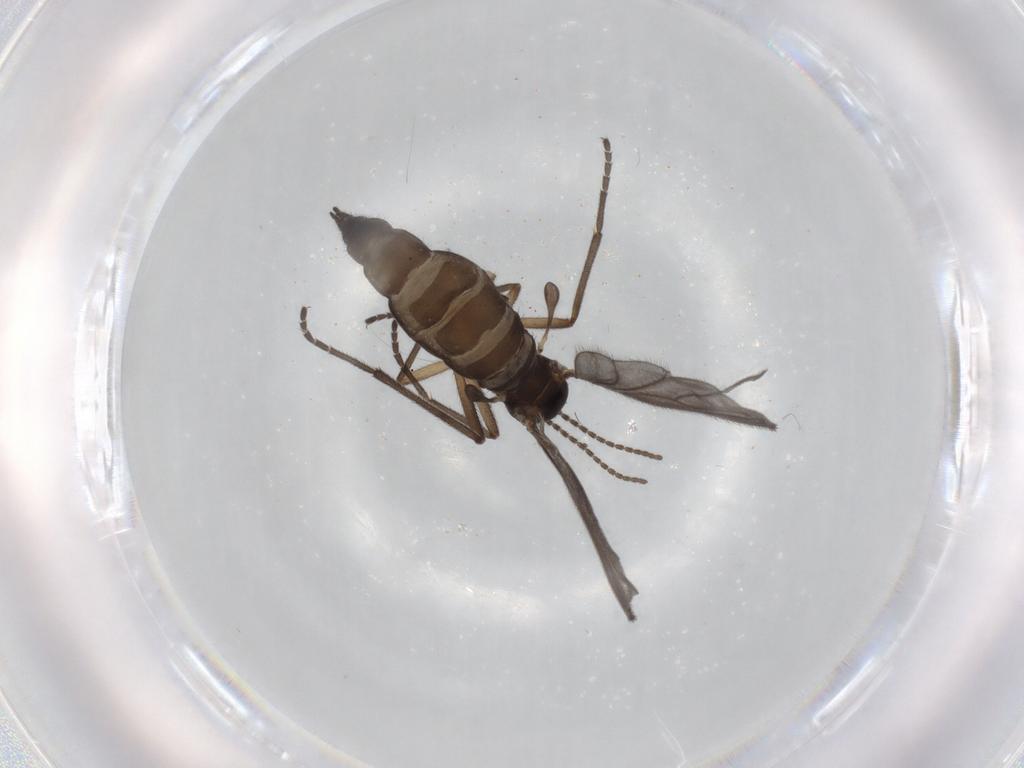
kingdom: Animalia
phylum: Arthropoda
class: Insecta
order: Diptera
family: Sciaridae
